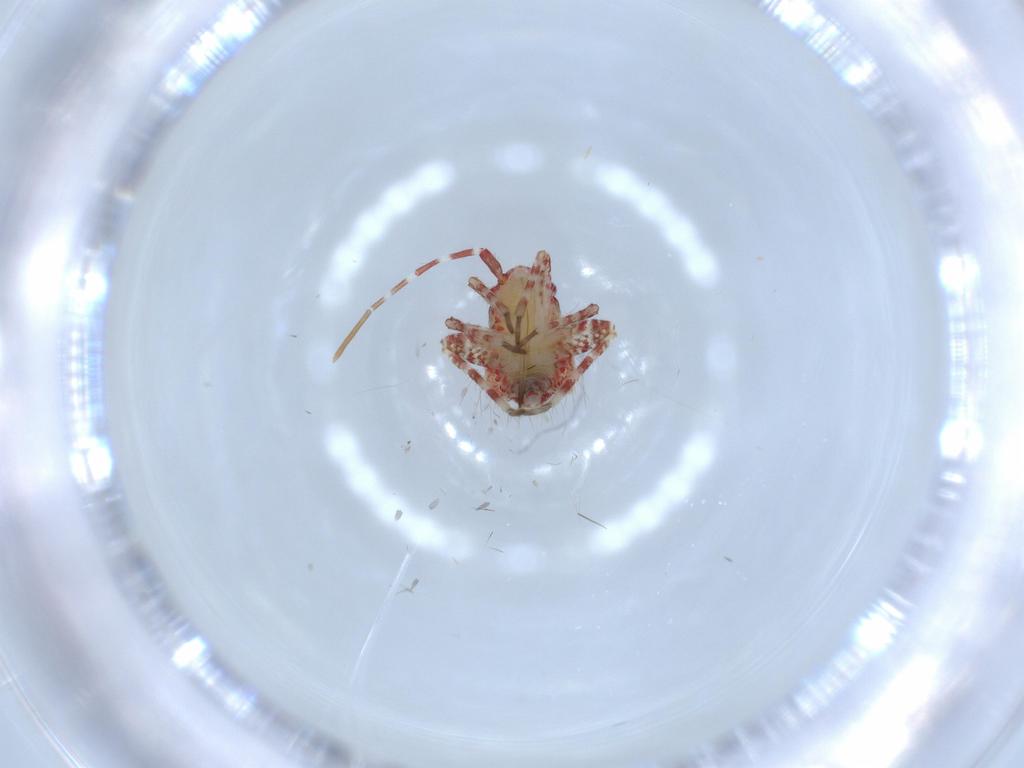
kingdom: Animalia
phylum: Arthropoda
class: Insecta
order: Hemiptera
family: Miridae
